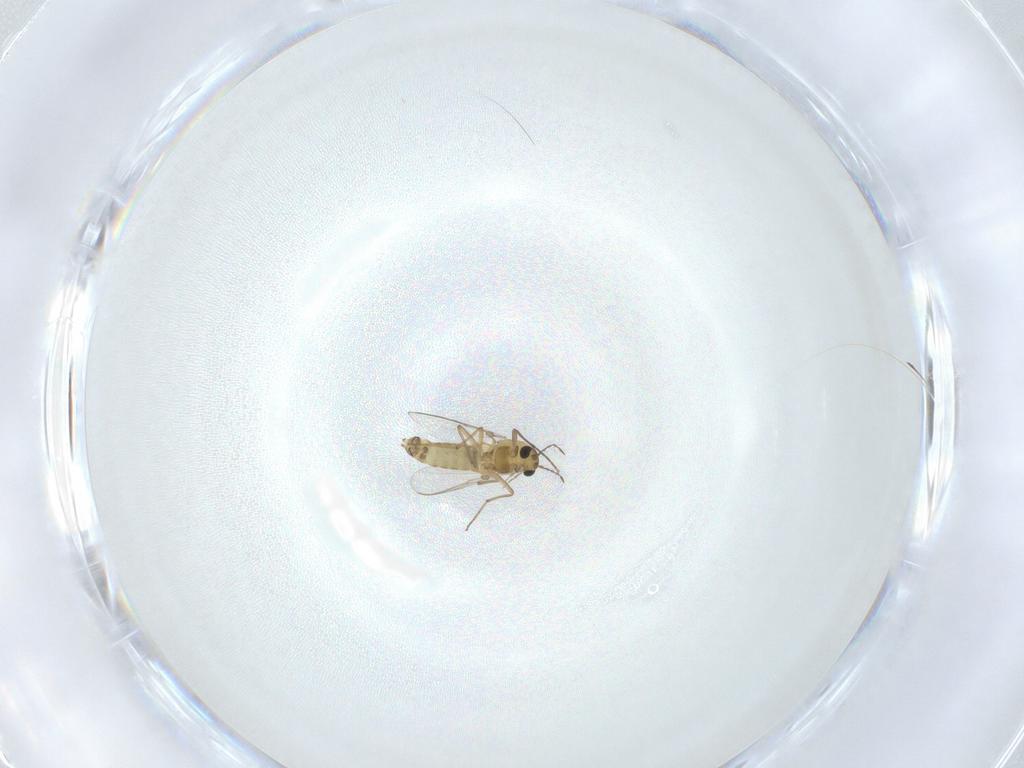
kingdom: Animalia
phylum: Arthropoda
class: Insecta
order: Diptera
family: Chironomidae
